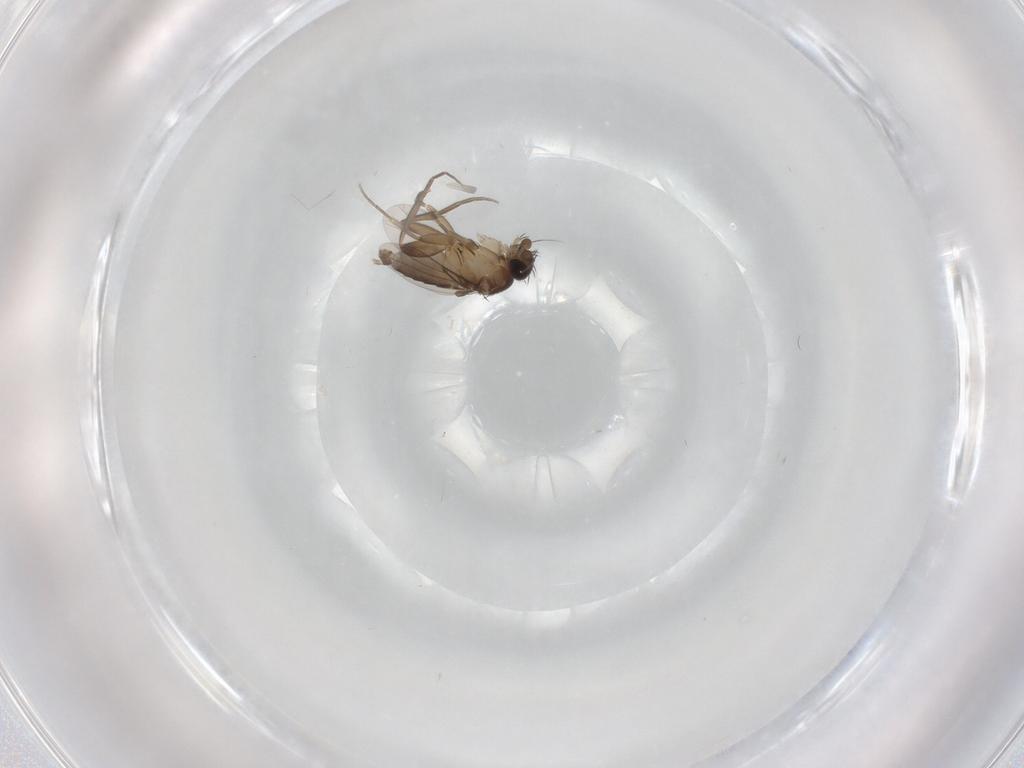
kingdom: Animalia
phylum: Arthropoda
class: Insecta
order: Diptera
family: Phoridae
